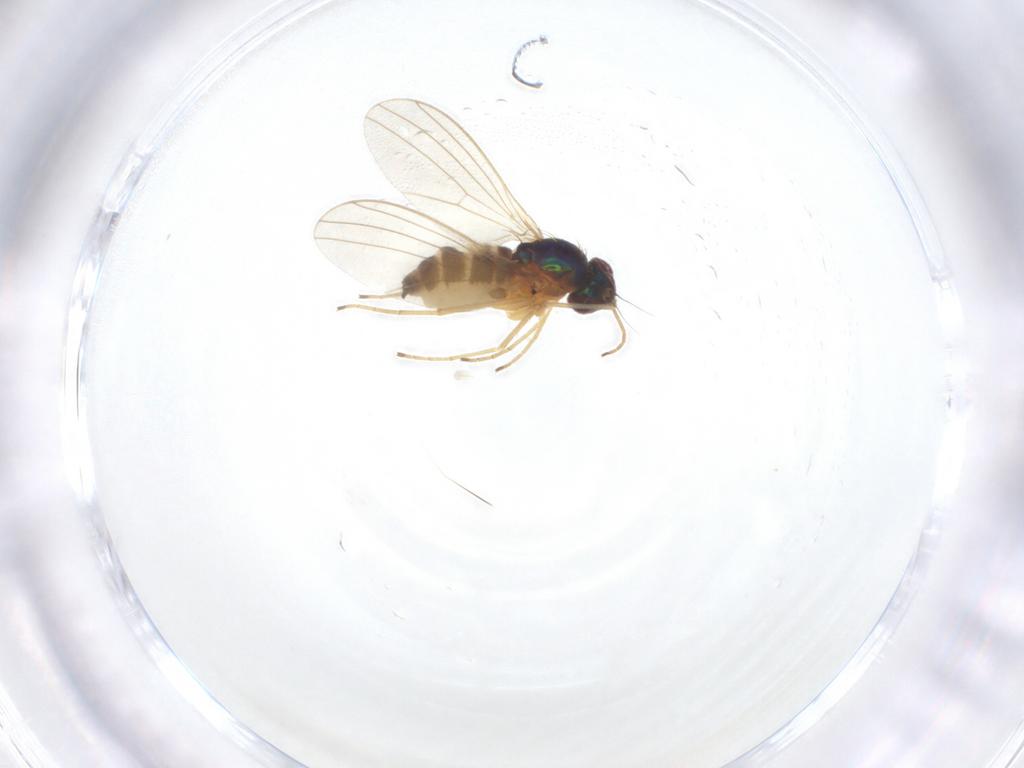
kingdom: Animalia
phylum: Arthropoda
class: Insecta
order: Diptera
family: Dolichopodidae
